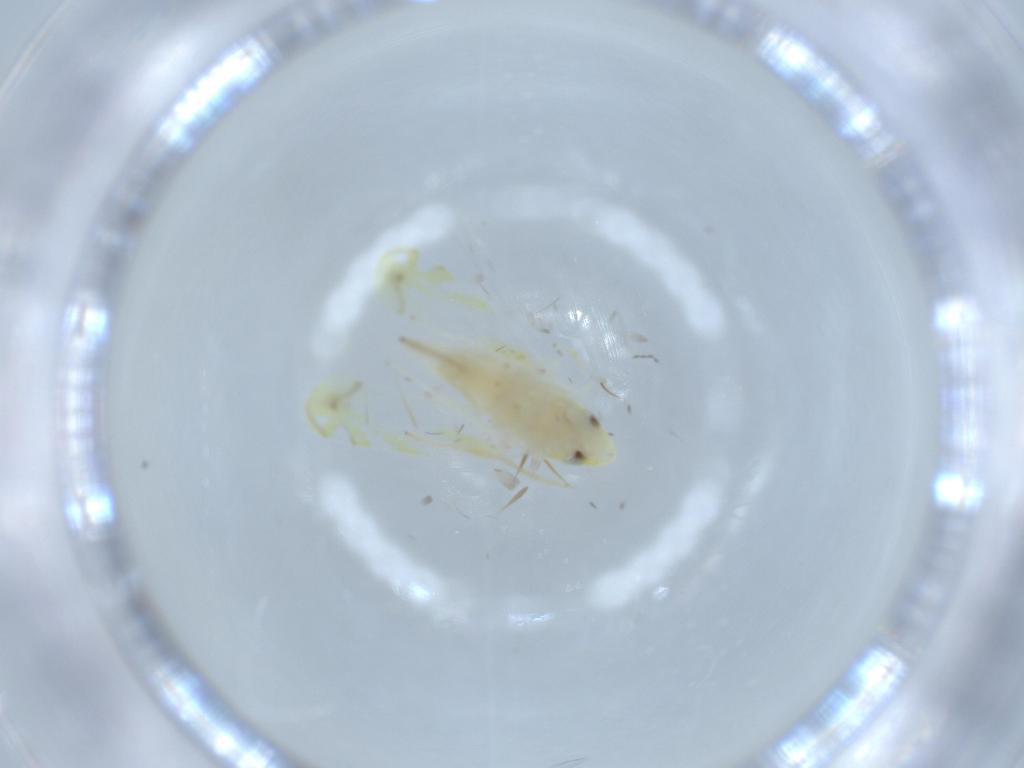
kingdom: Animalia
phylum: Arthropoda
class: Insecta
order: Hemiptera
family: Cicadellidae
